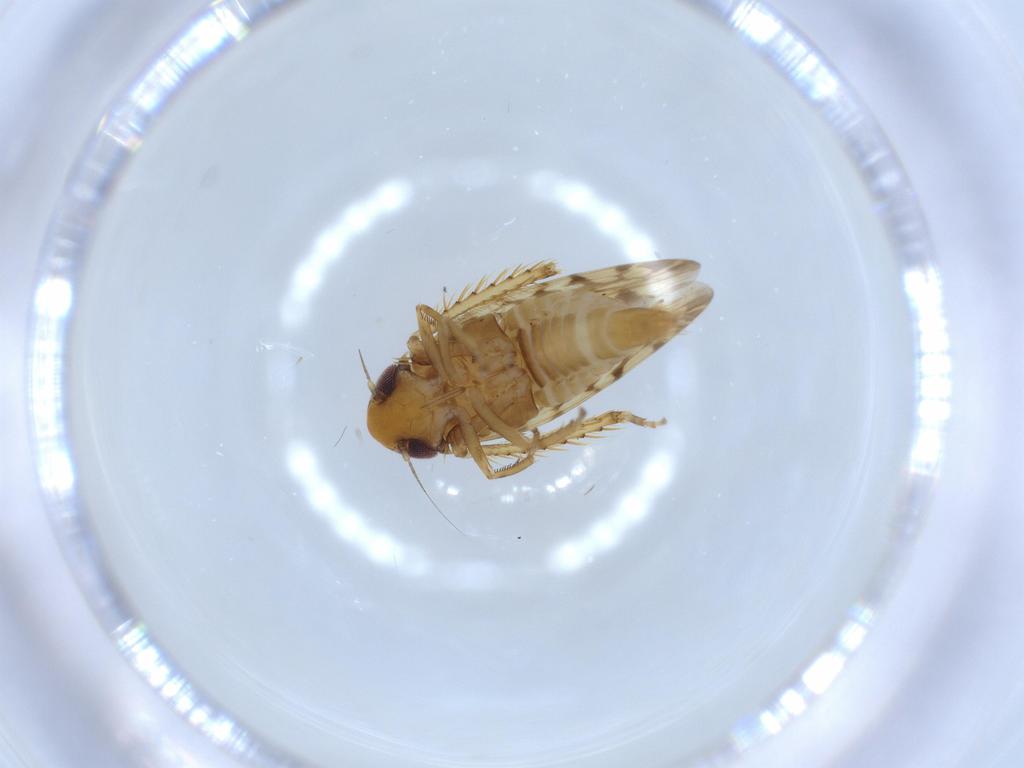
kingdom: Animalia
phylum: Arthropoda
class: Insecta
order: Hemiptera
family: Cicadellidae
